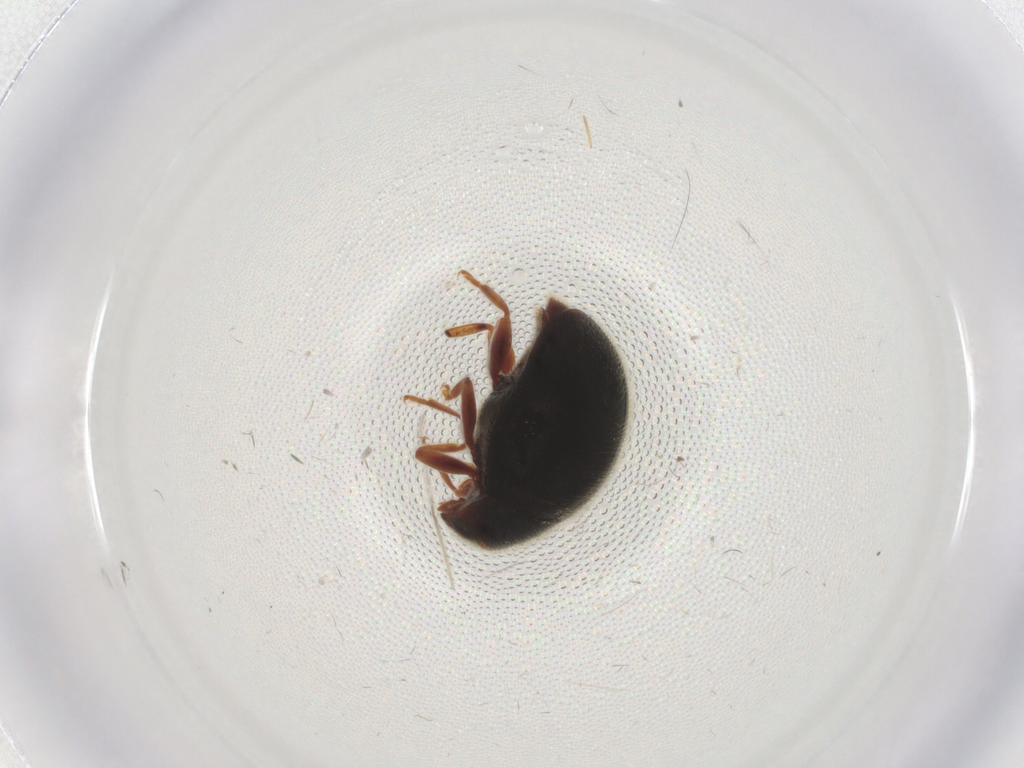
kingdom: Animalia
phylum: Arthropoda
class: Insecta
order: Coleoptera
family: Coccinellidae
